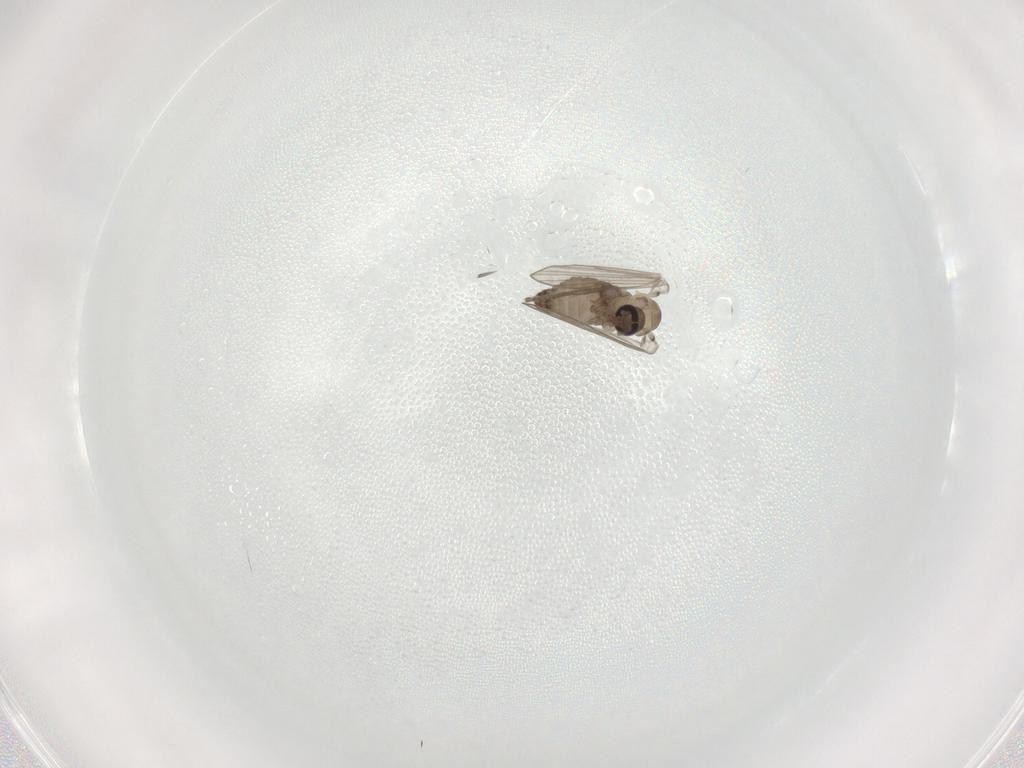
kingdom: Animalia
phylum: Arthropoda
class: Insecta
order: Diptera
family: Psychodidae
